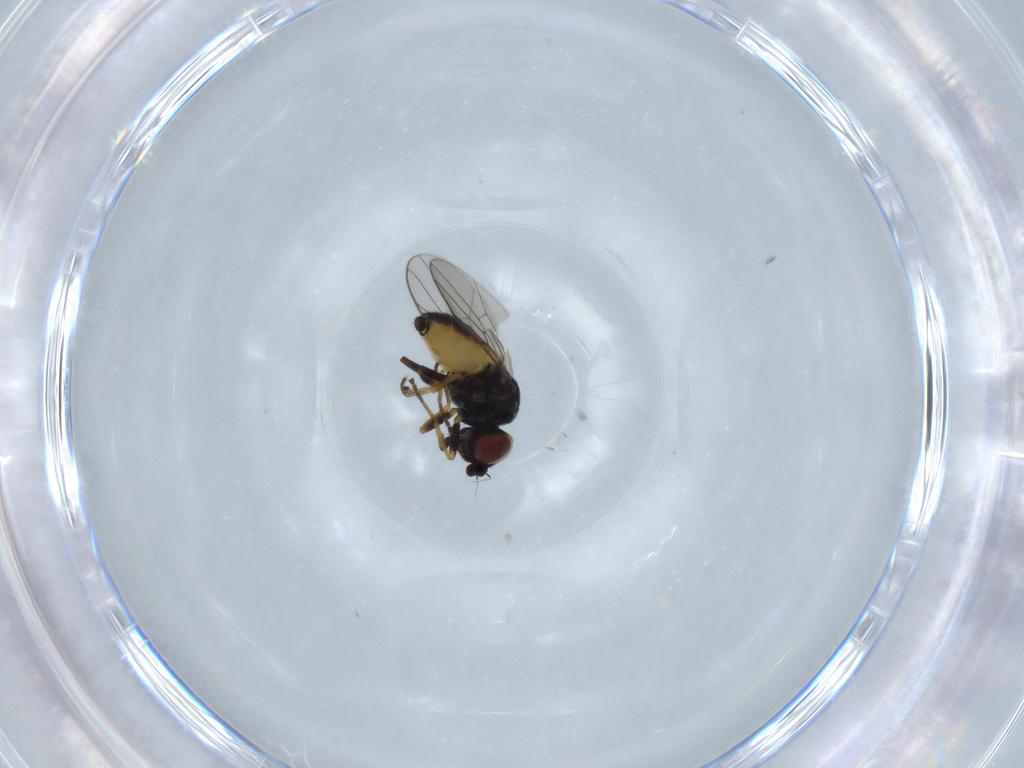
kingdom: Animalia
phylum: Arthropoda
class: Insecta
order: Diptera
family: Chloropidae
